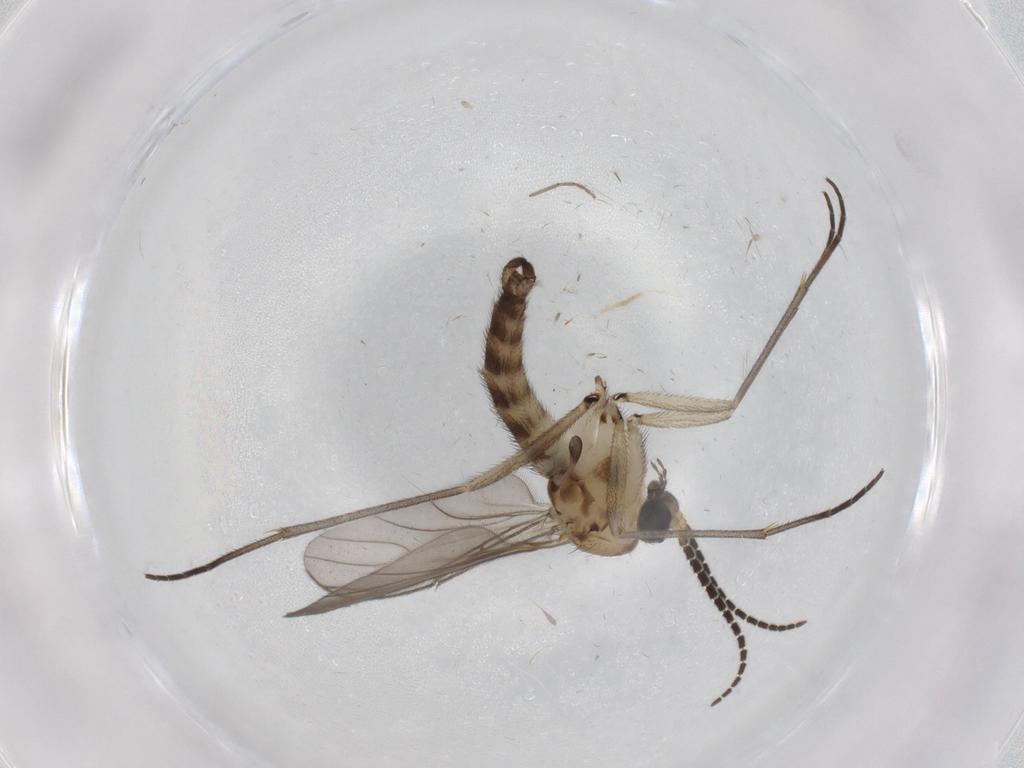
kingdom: Animalia
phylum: Arthropoda
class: Insecta
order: Diptera
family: Sciaridae
